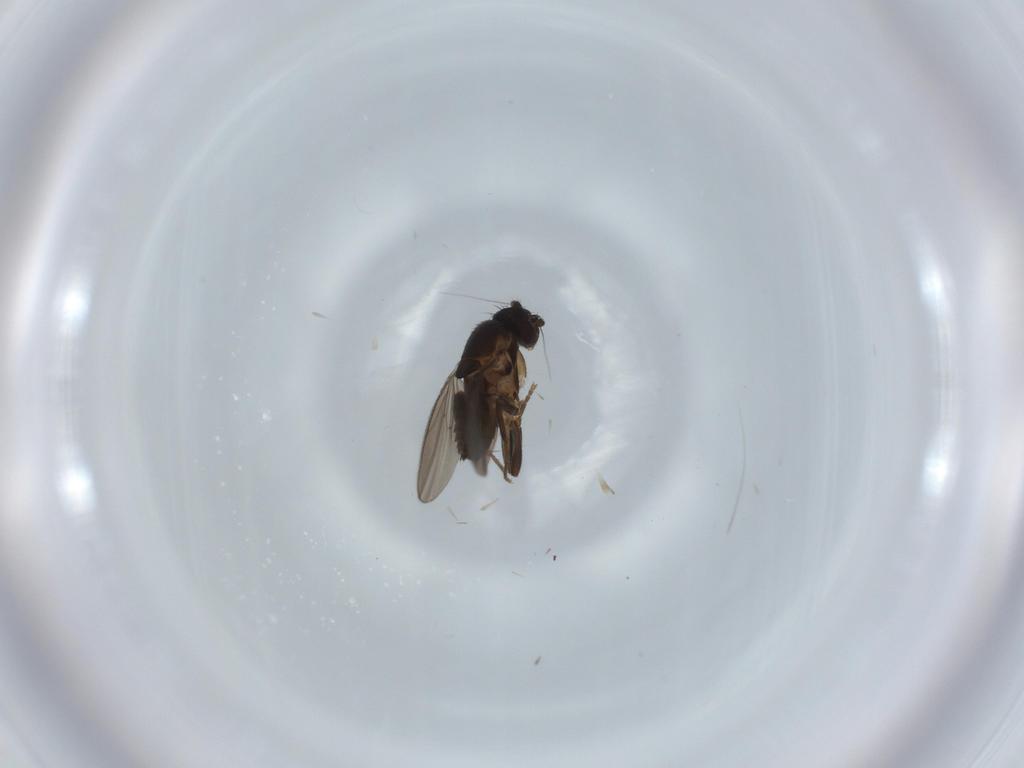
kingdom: Animalia
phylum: Arthropoda
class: Insecta
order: Diptera
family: Sphaeroceridae
